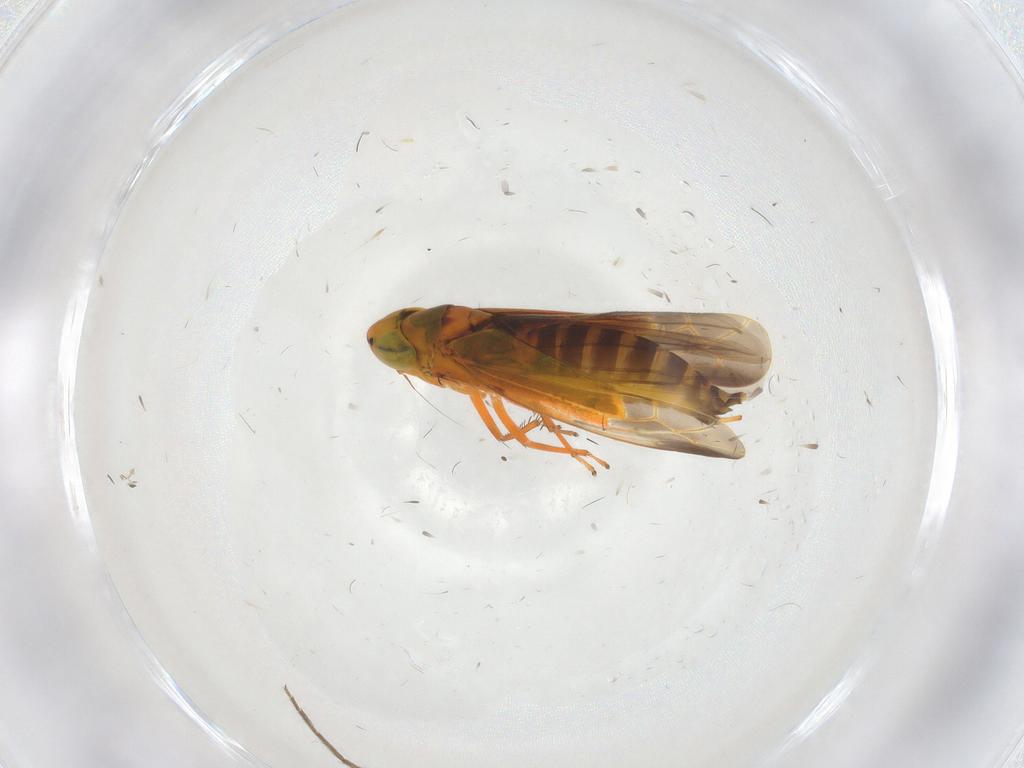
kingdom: Animalia
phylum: Arthropoda
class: Insecta
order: Hemiptera
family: Cicadellidae
